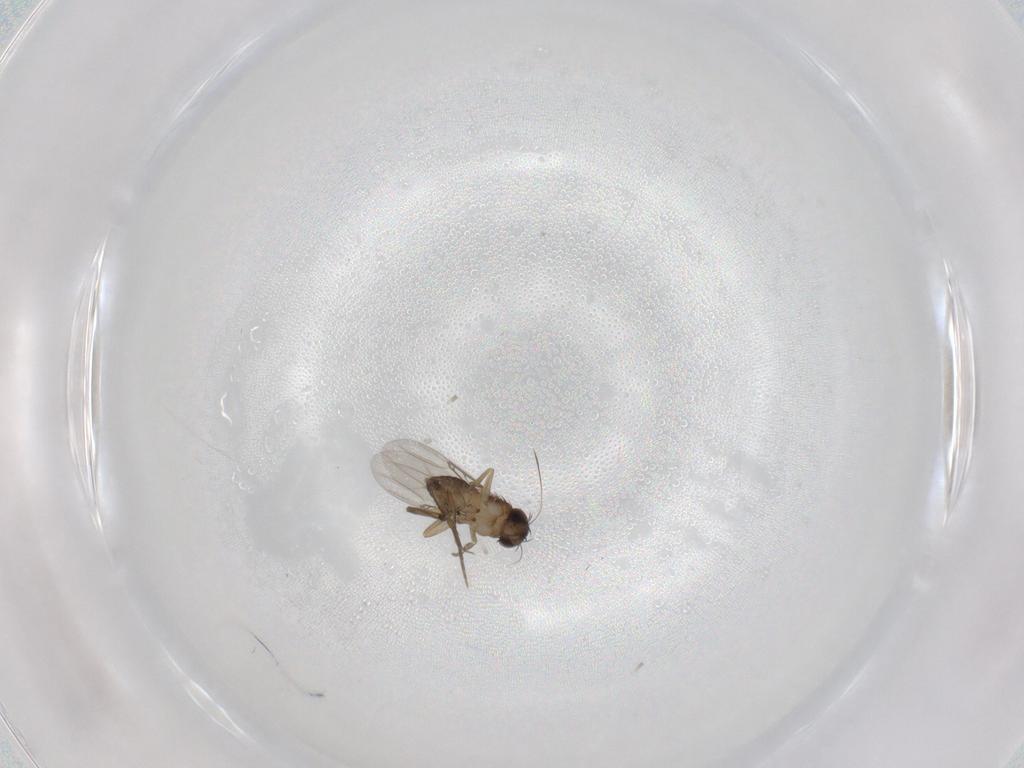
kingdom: Animalia
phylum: Arthropoda
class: Insecta
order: Diptera
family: Phoridae
